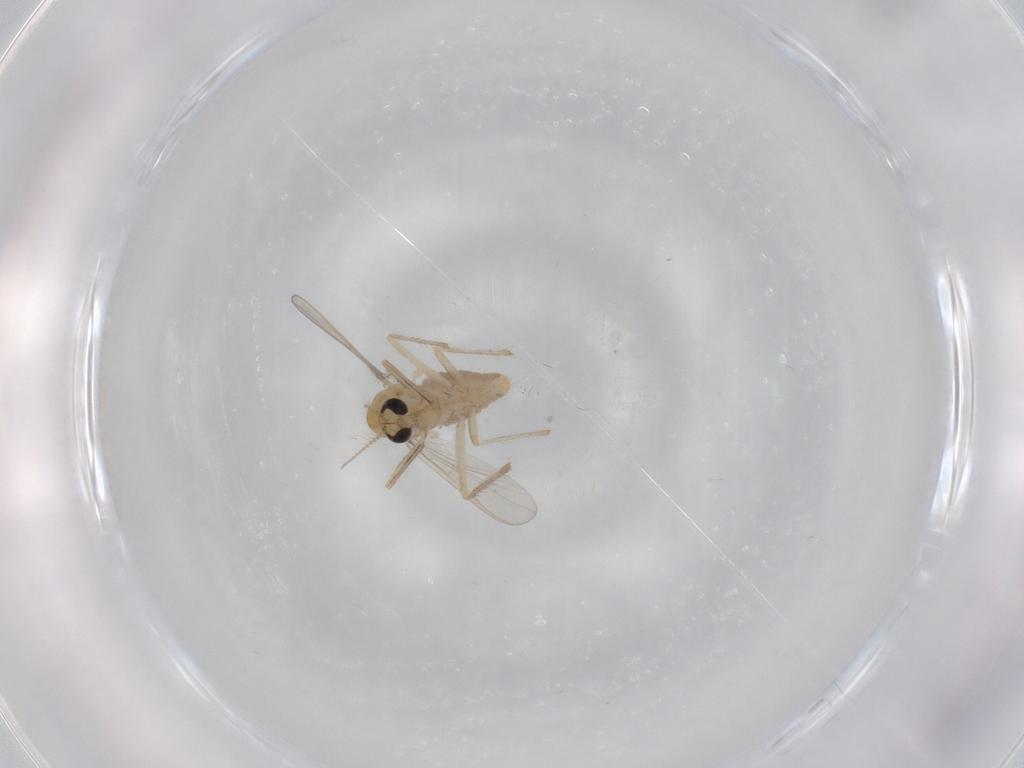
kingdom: Animalia
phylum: Arthropoda
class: Insecta
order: Diptera
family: Chironomidae
